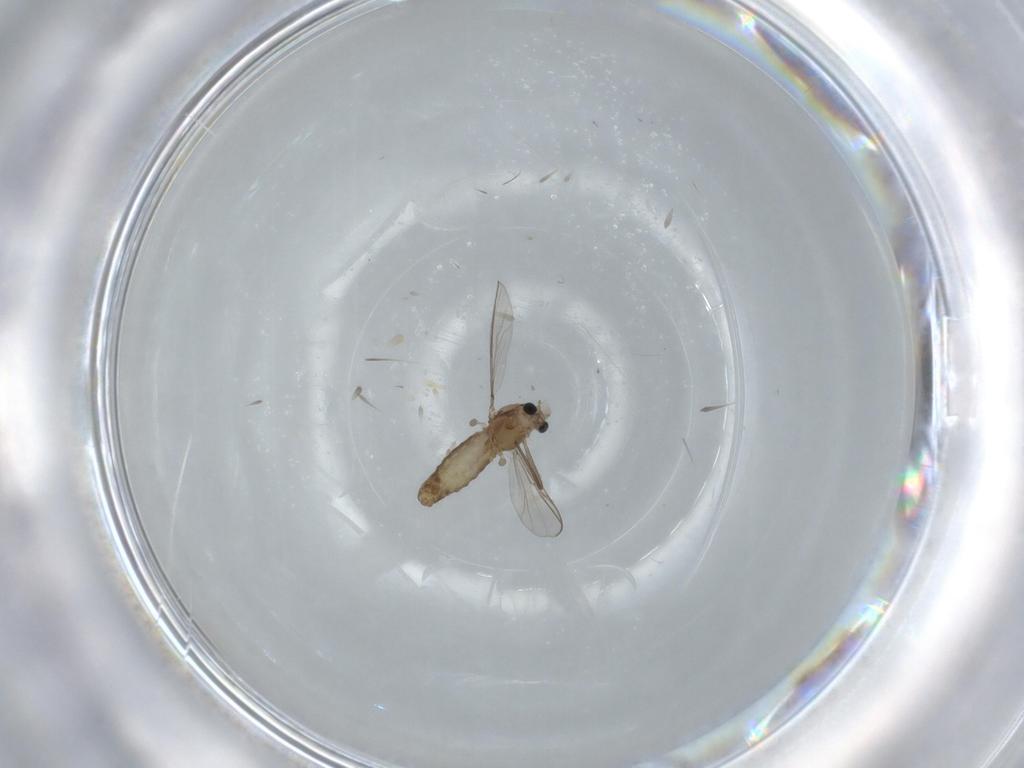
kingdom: Animalia
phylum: Arthropoda
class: Insecta
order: Diptera
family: Chironomidae
